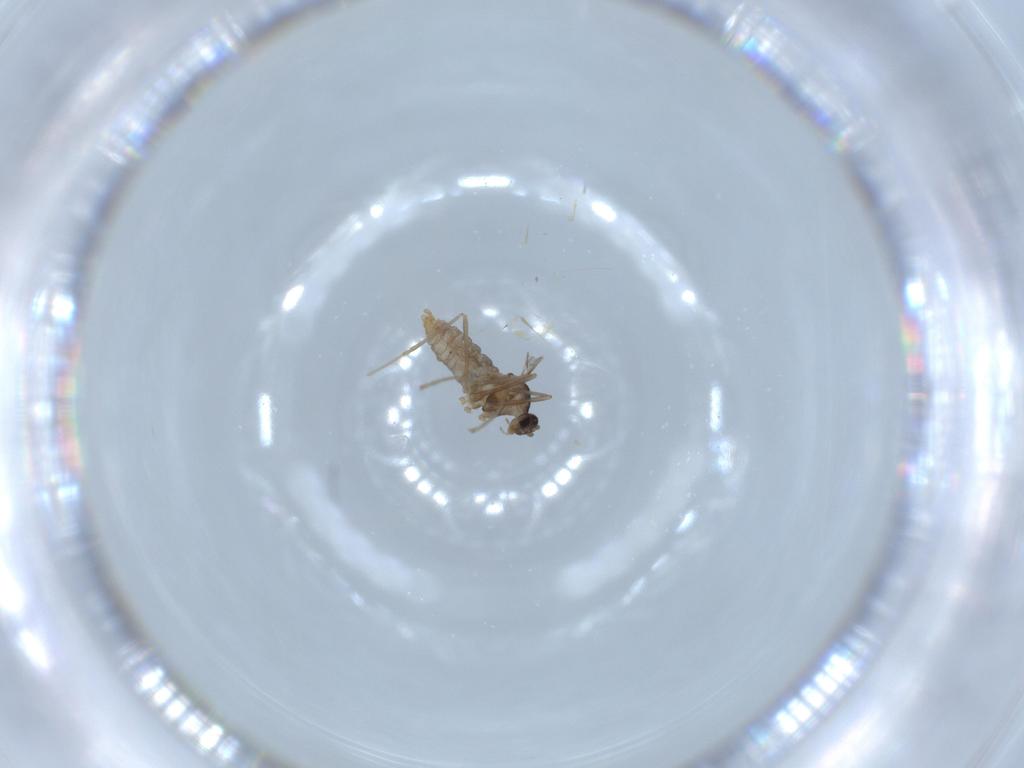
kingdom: Animalia
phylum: Arthropoda
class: Insecta
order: Diptera
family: Cecidomyiidae
